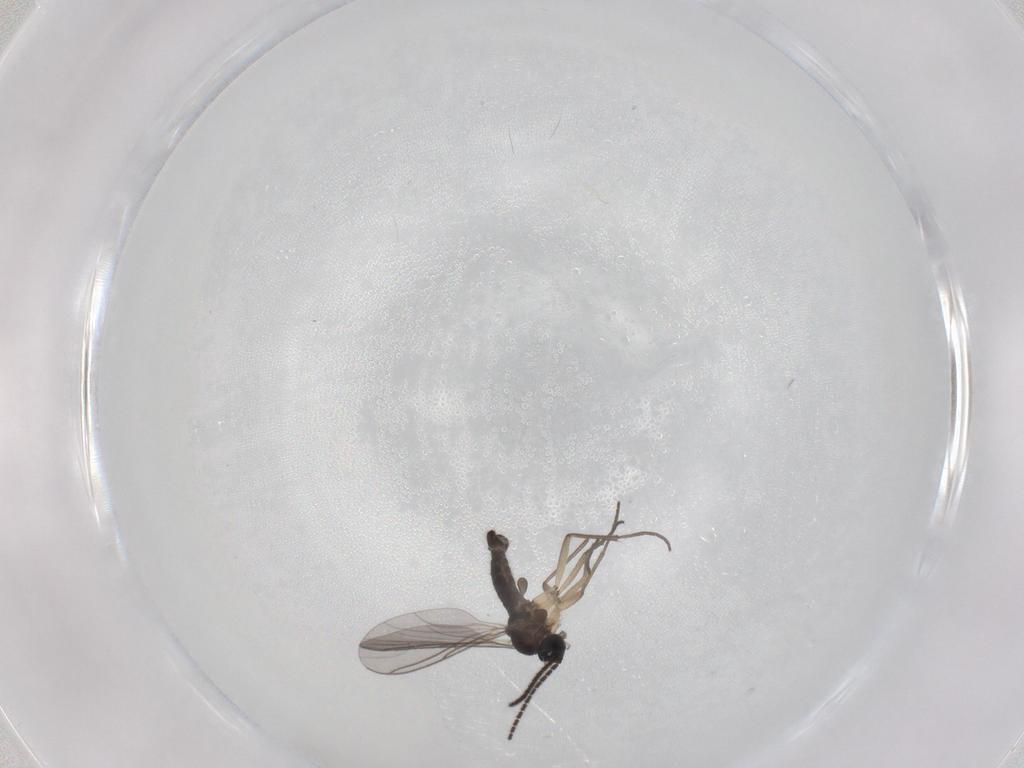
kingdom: Animalia
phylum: Arthropoda
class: Insecta
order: Diptera
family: Sciaridae
